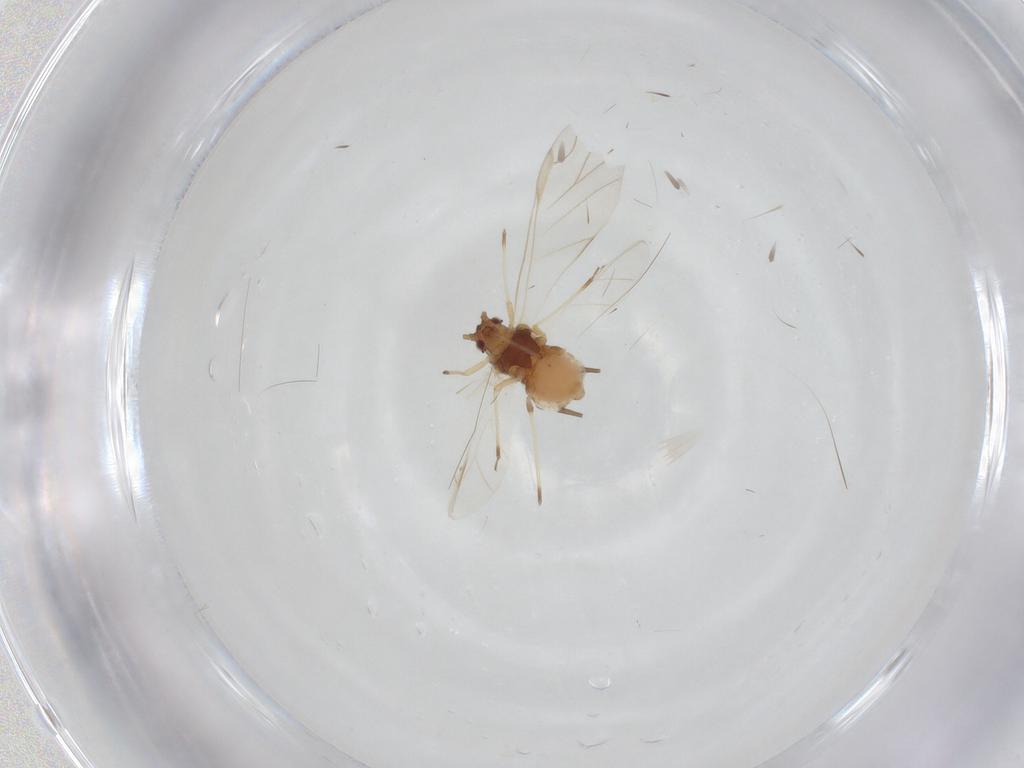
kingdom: Animalia
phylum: Arthropoda
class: Insecta
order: Hemiptera
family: Aphididae
